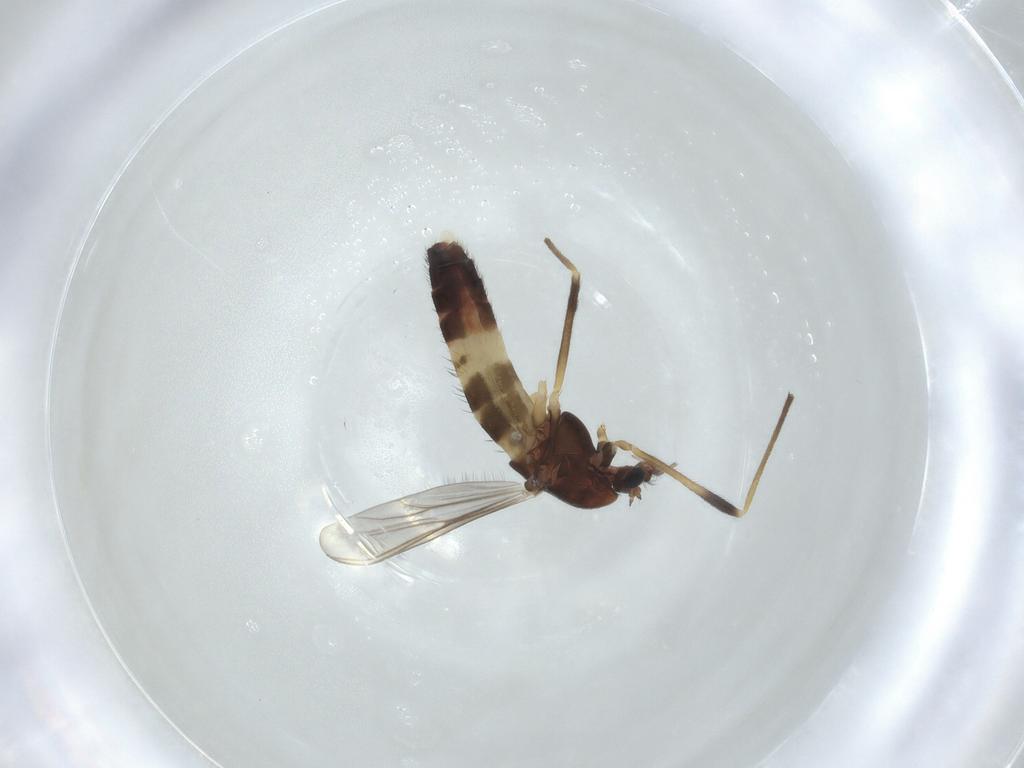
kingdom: Animalia
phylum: Arthropoda
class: Insecta
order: Diptera
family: Chironomidae
